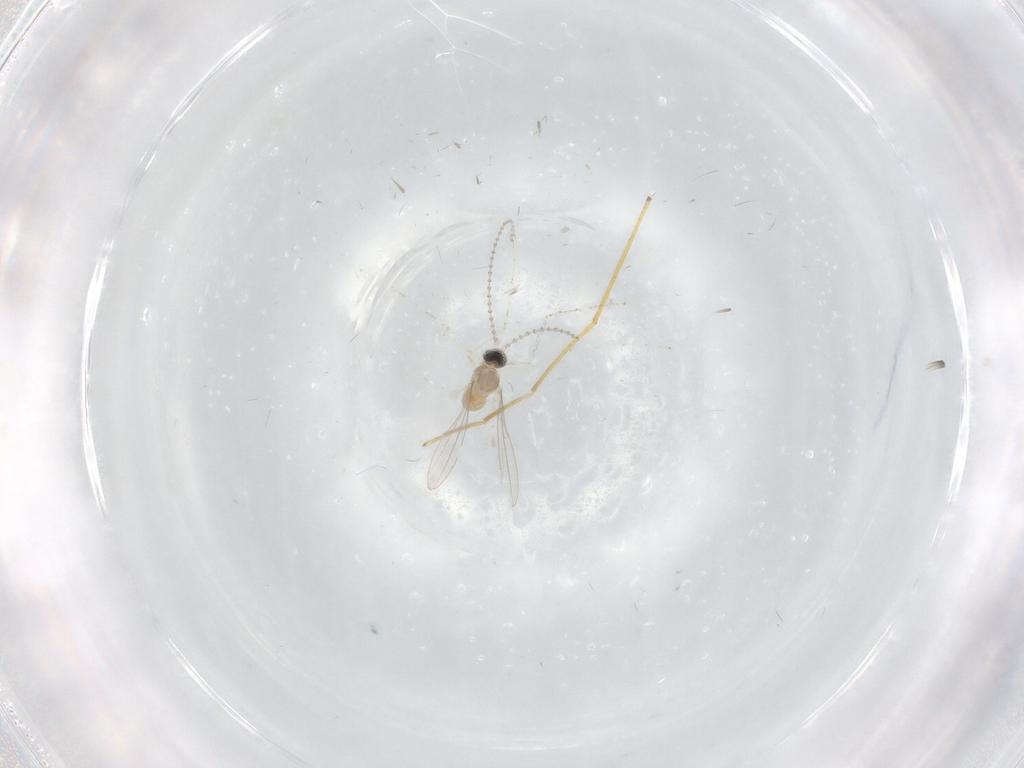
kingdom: Animalia
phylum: Arthropoda
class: Insecta
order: Diptera
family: Cecidomyiidae
